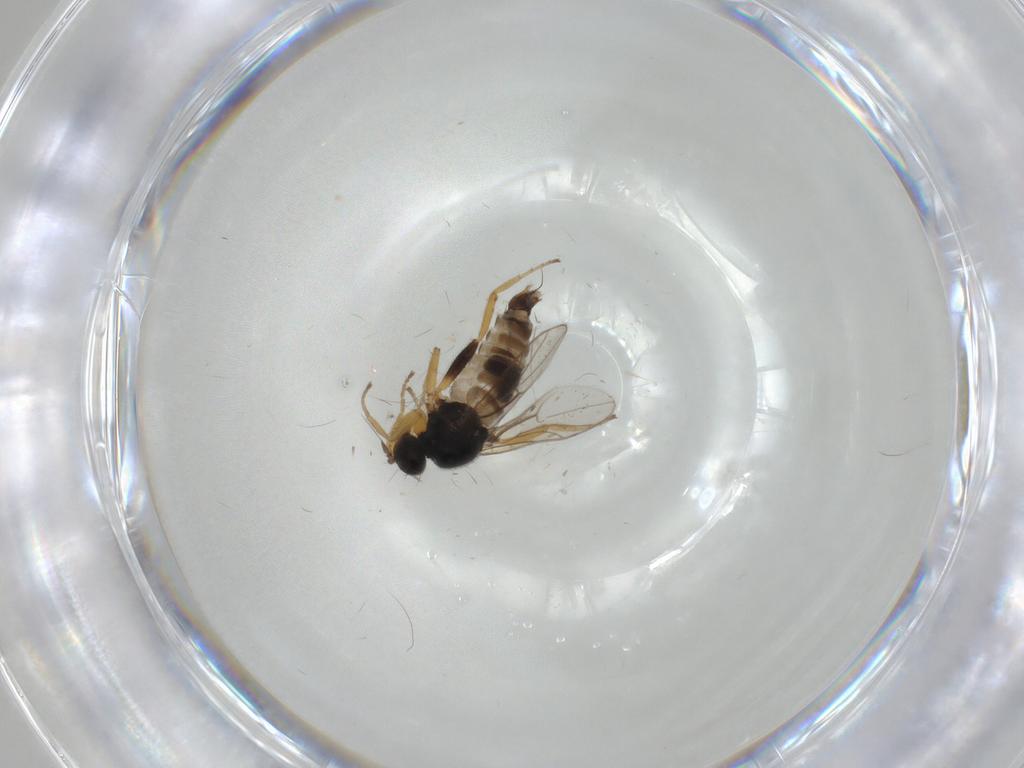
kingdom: Animalia
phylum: Arthropoda
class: Insecta
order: Diptera
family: Hybotidae
